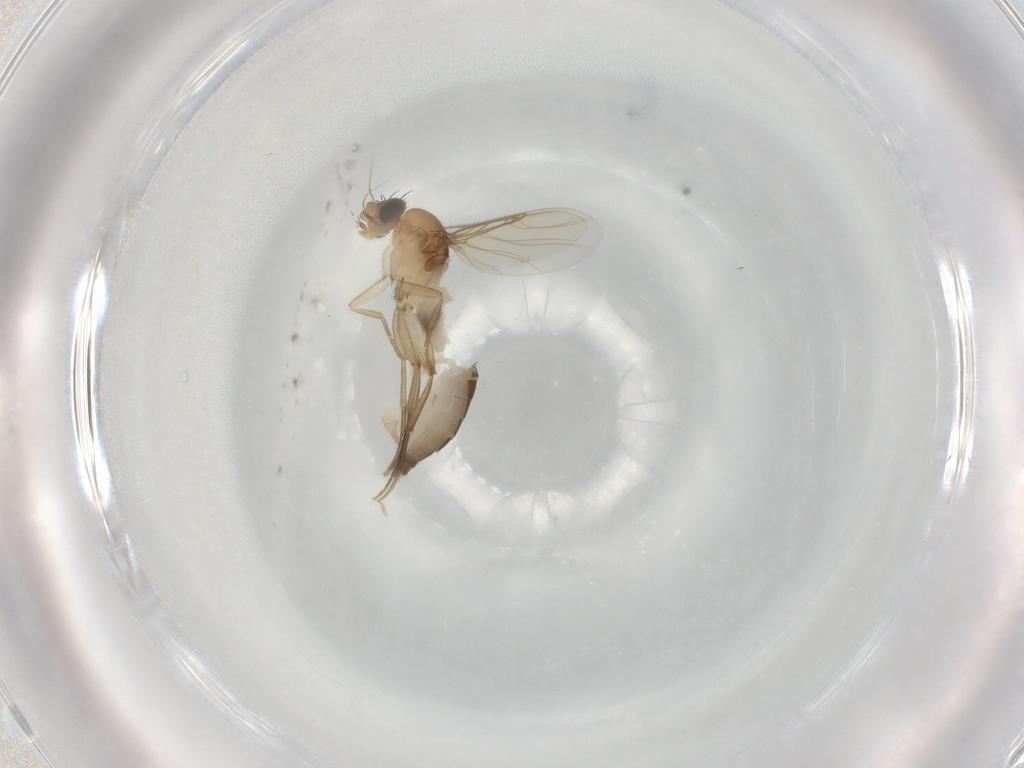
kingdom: Animalia
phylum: Arthropoda
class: Insecta
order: Diptera
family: Phoridae
